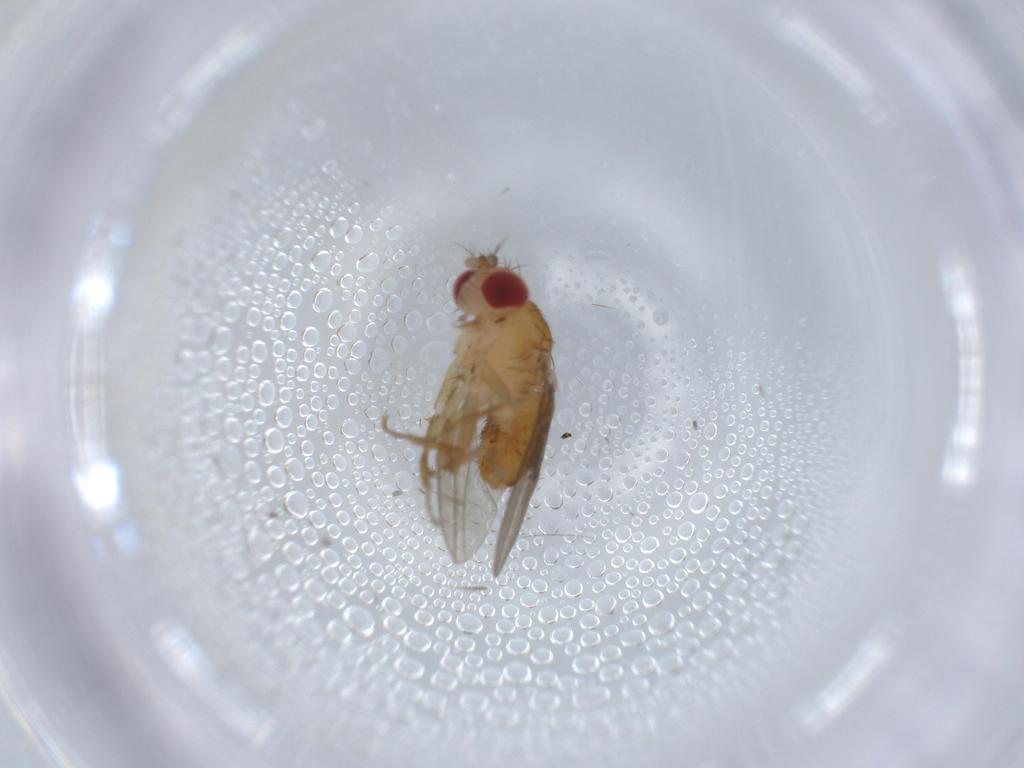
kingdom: Animalia
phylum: Arthropoda
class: Insecta
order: Diptera
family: Drosophilidae
